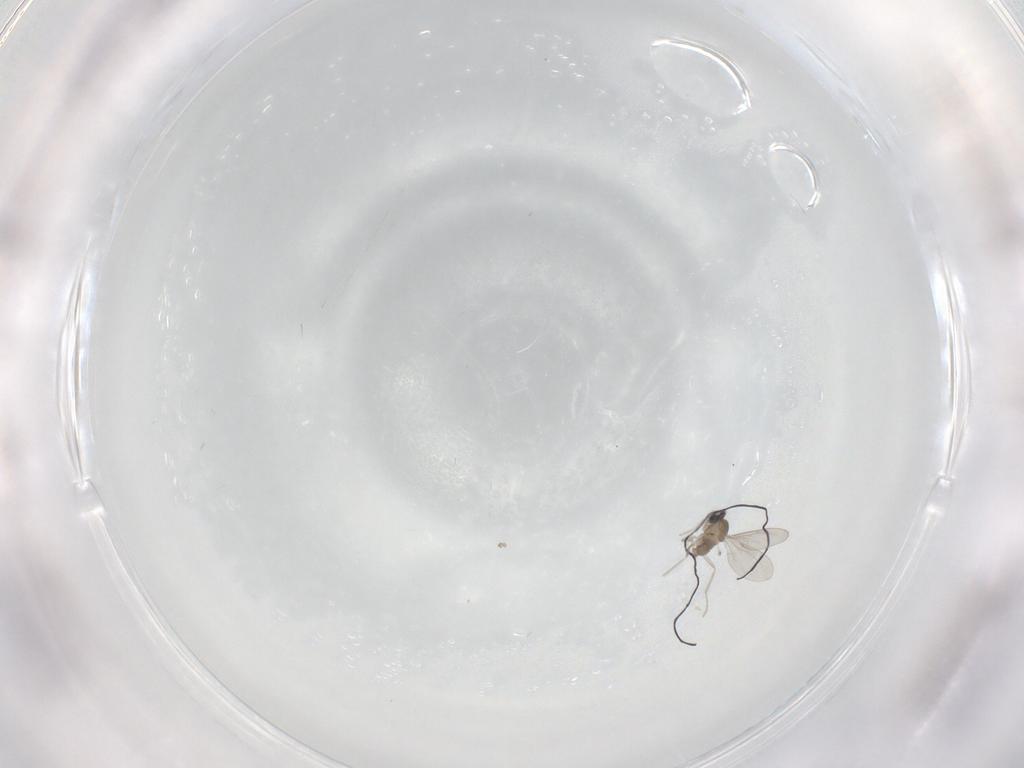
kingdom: Animalia
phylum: Arthropoda
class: Insecta
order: Diptera
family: Cecidomyiidae
